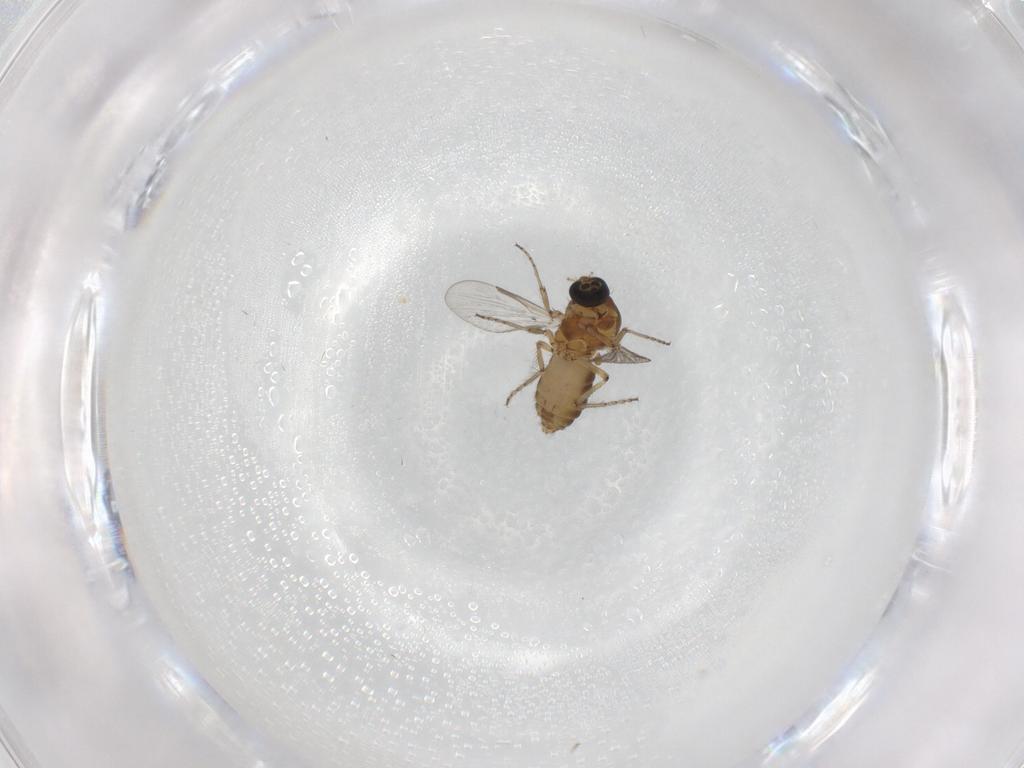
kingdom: Animalia
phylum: Arthropoda
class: Insecta
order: Diptera
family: Ceratopogonidae
